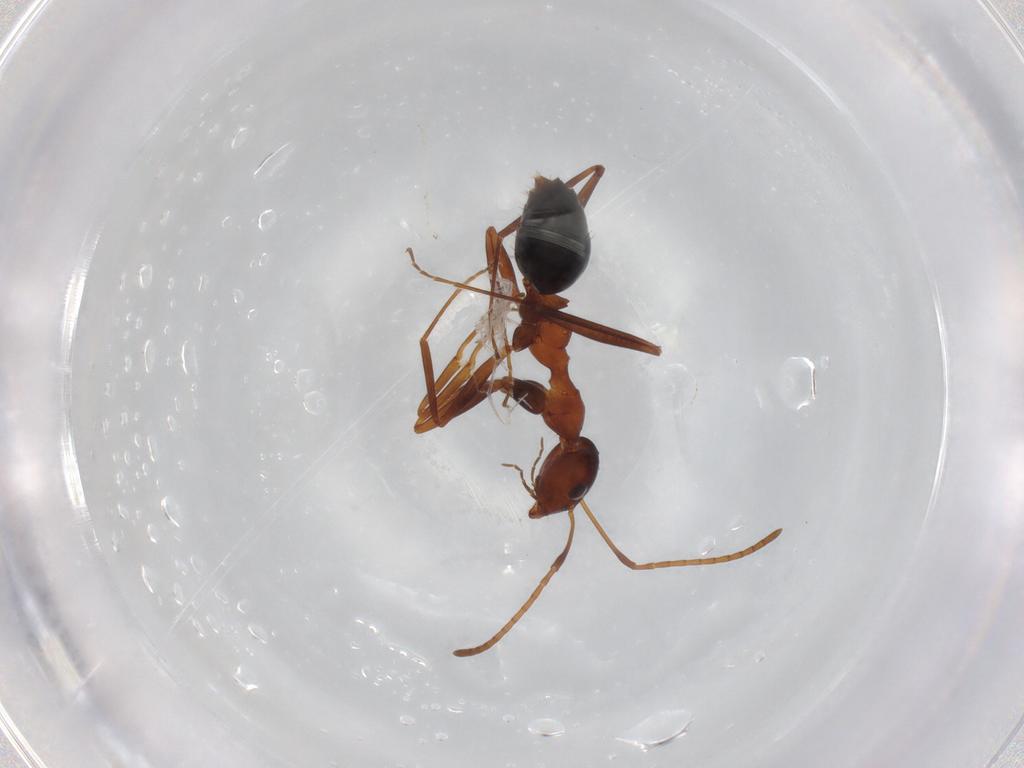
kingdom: Animalia
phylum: Arthropoda
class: Insecta
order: Hymenoptera
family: Formicidae
